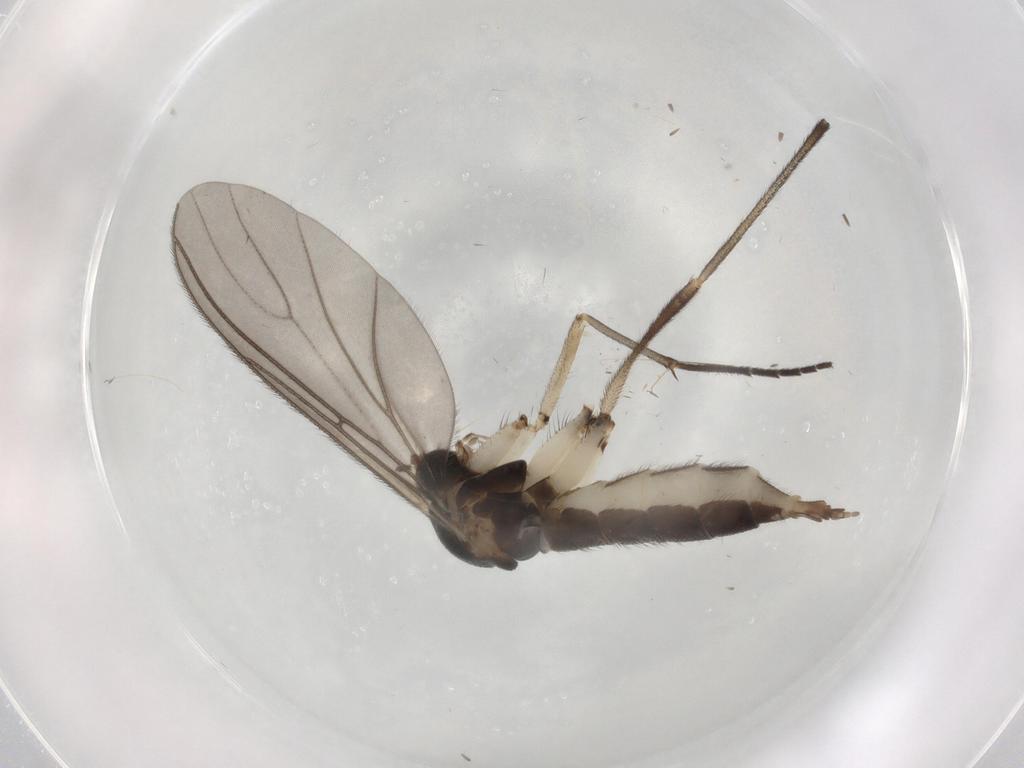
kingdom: Animalia
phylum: Arthropoda
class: Insecta
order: Diptera
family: Sciaridae
